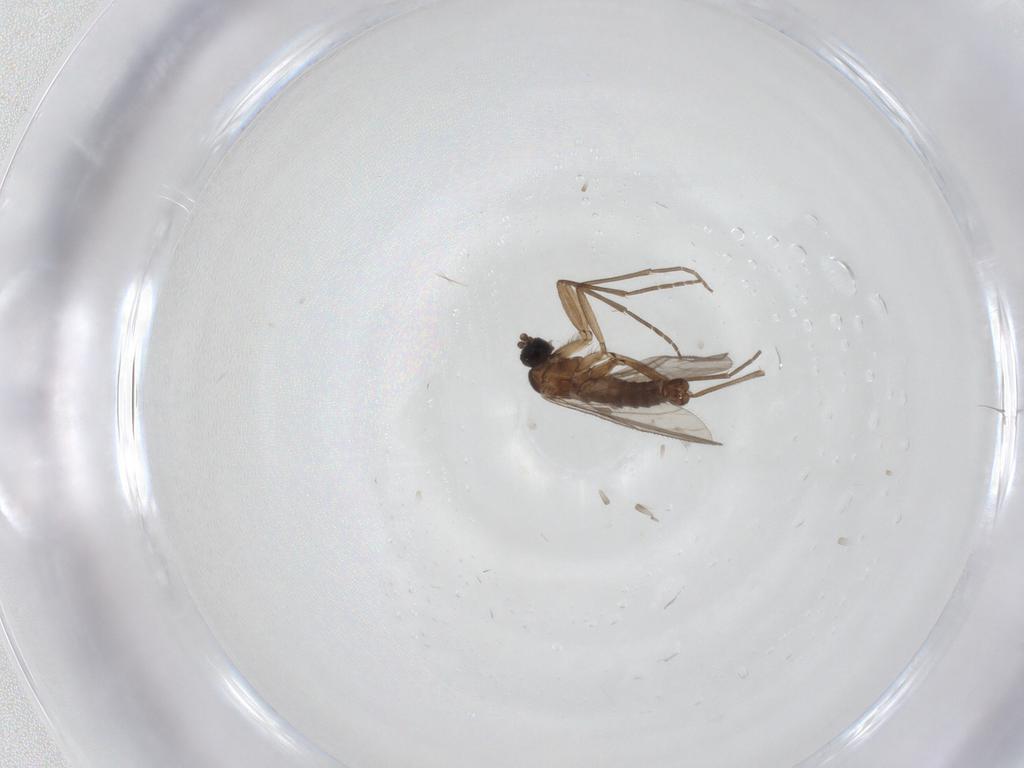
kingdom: Animalia
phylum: Arthropoda
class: Insecta
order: Diptera
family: Sciaridae
